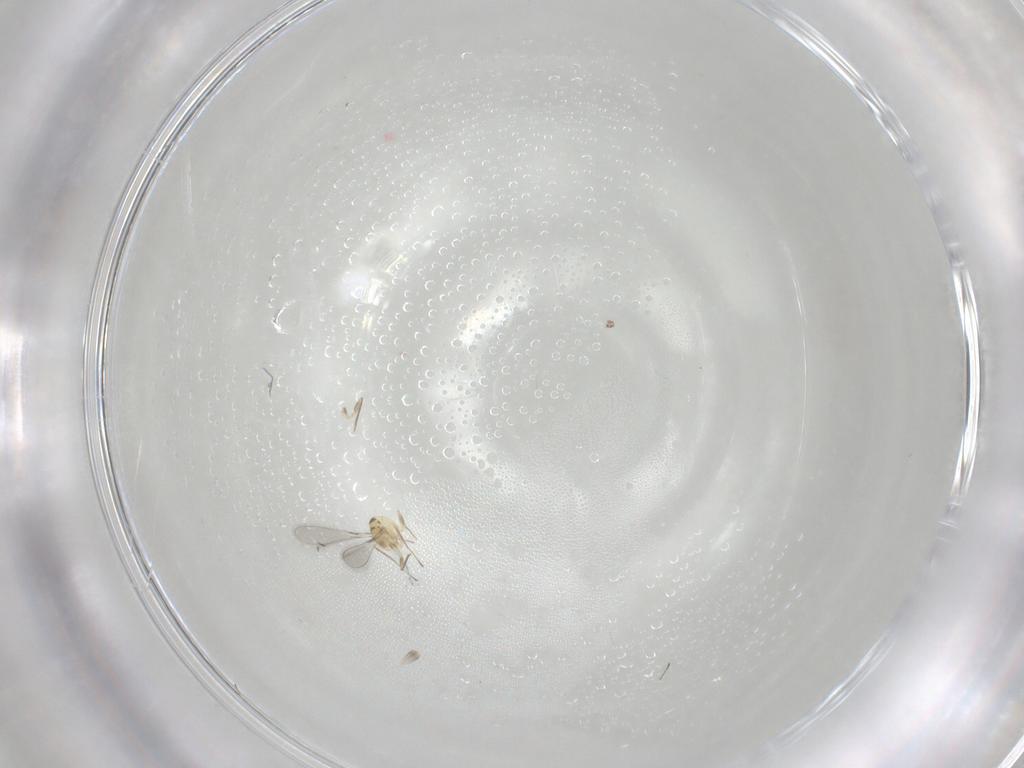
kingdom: Animalia
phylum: Arthropoda
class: Insecta
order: Hymenoptera
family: Mymaridae
